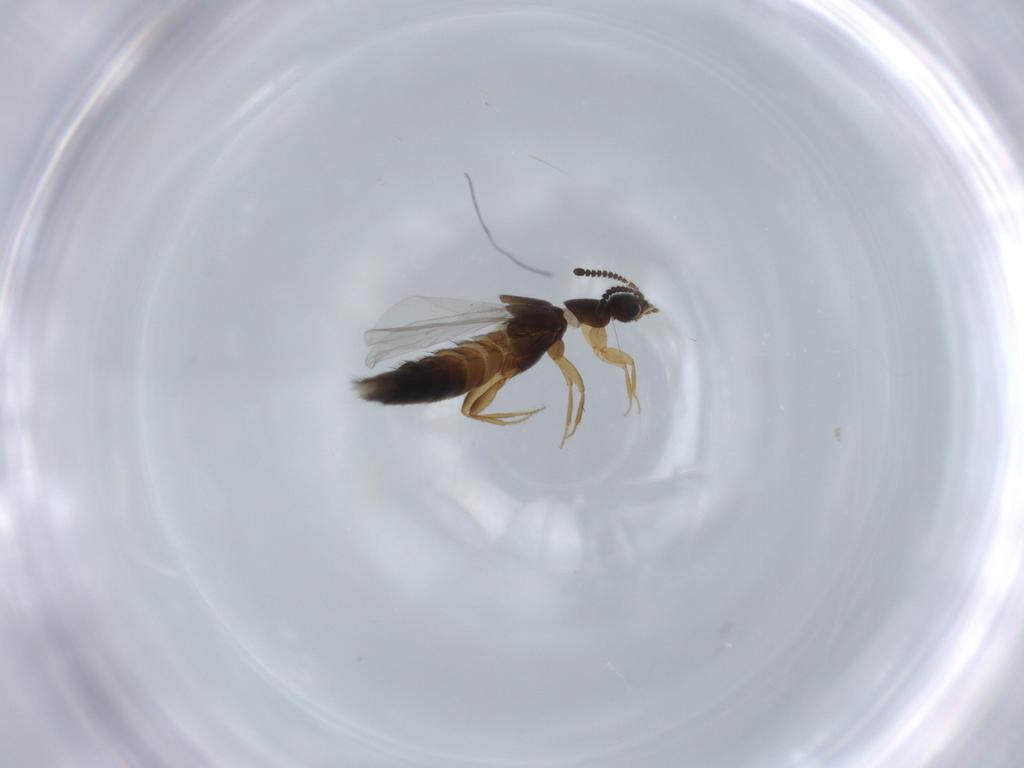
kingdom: Animalia
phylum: Arthropoda
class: Insecta
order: Coleoptera
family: Staphylinidae
